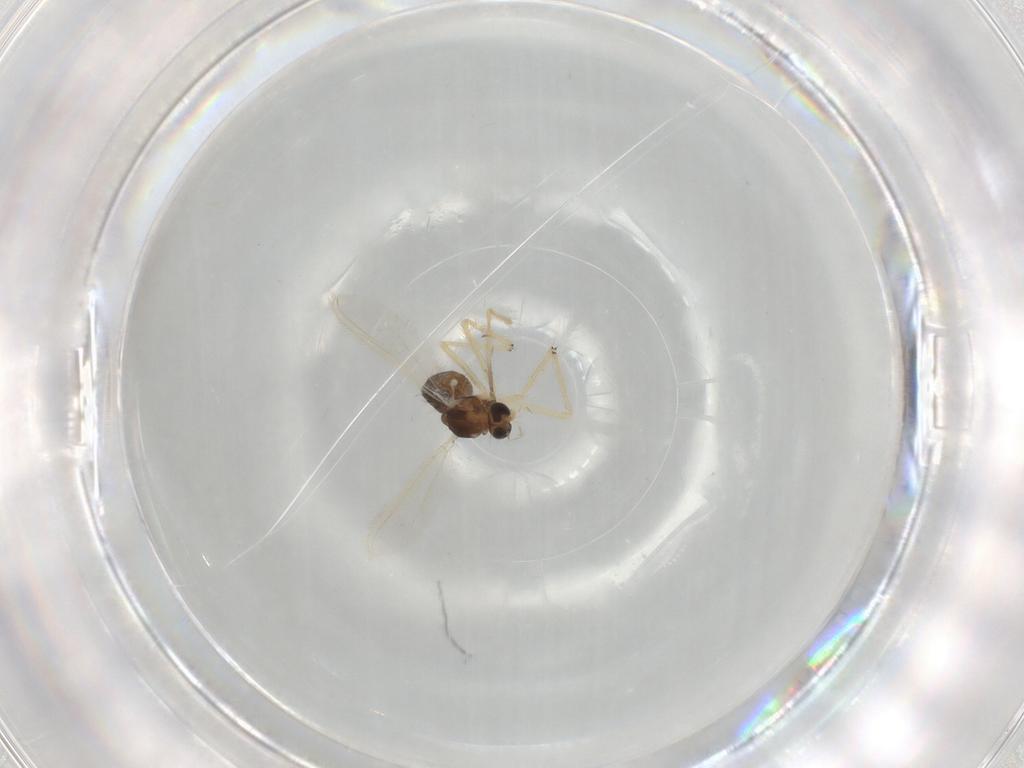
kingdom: Animalia
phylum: Arthropoda
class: Insecta
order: Diptera
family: Chironomidae
